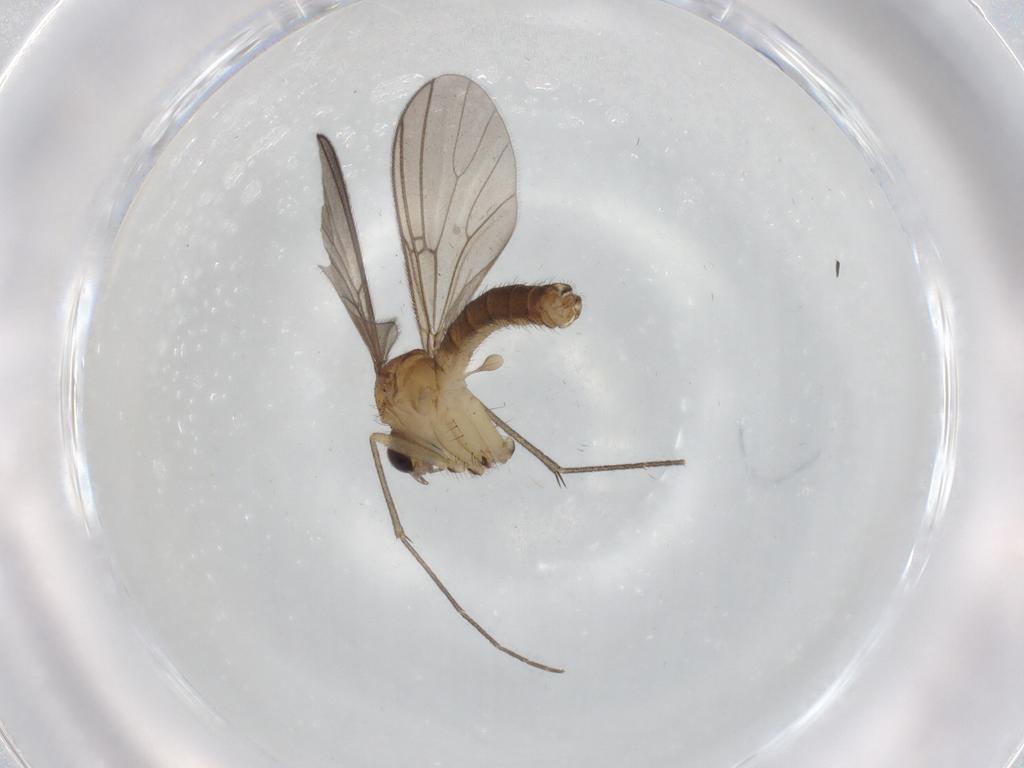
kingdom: Animalia
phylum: Arthropoda
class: Insecta
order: Diptera
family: Mycetophilidae
